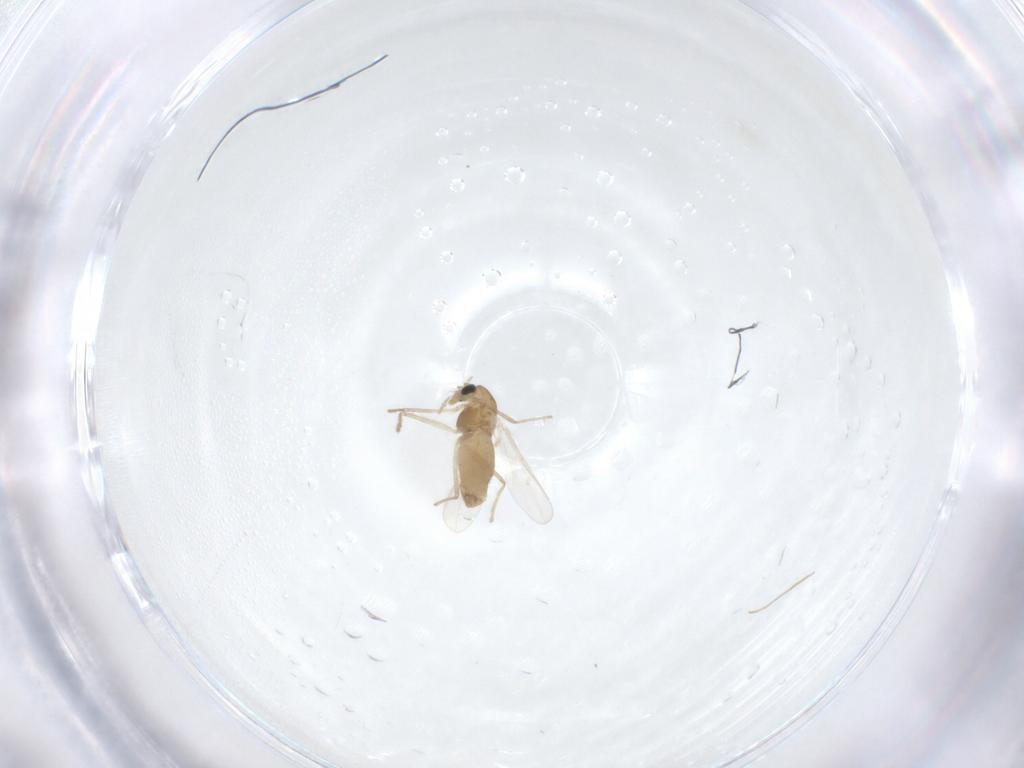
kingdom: Animalia
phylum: Arthropoda
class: Insecta
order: Diptera
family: Chironomidae
